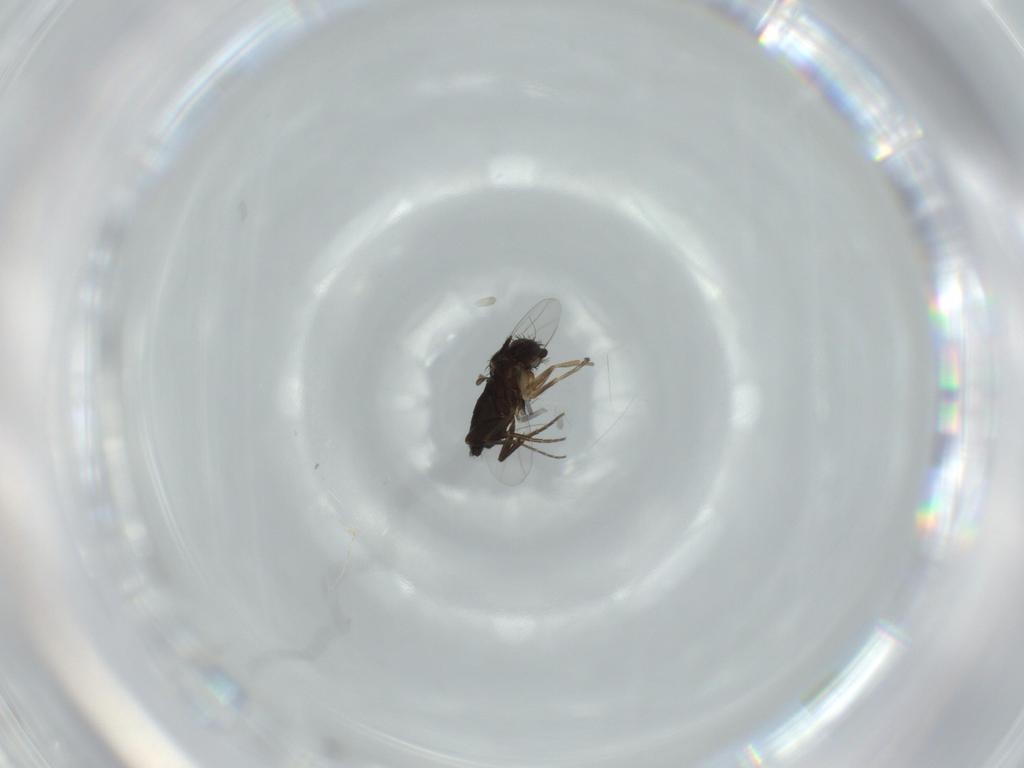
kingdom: Animalia
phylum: Arthropoda
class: Insecta
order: Diptera
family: Sciaridae
